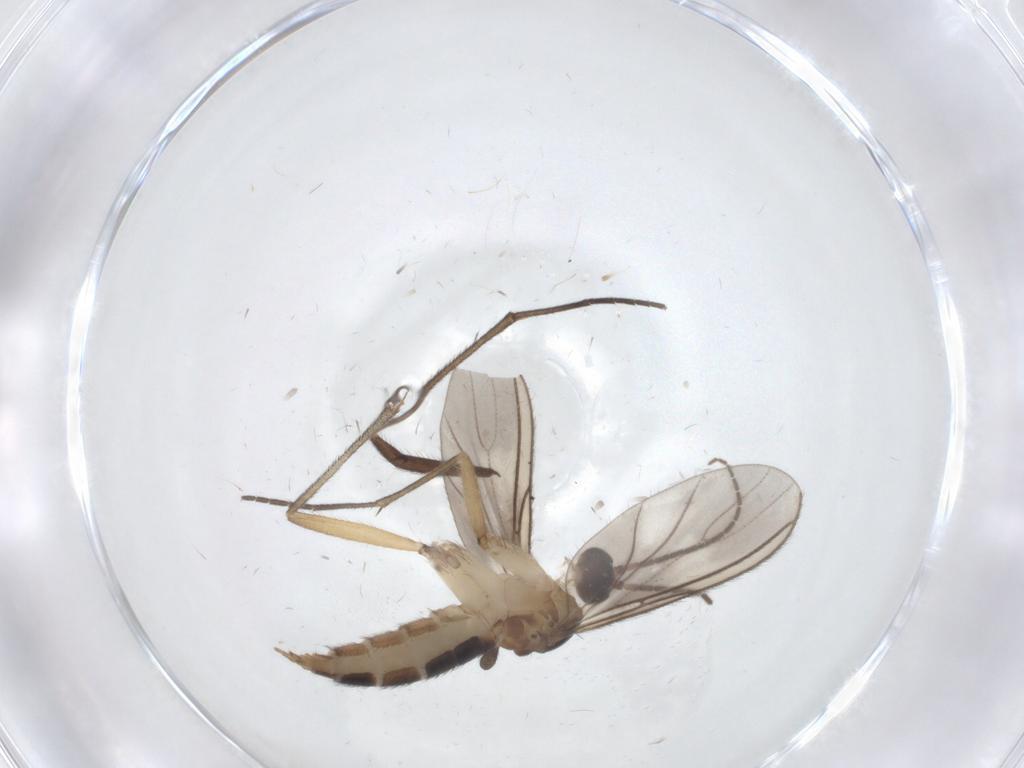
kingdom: Animalia
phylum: Arthropoda
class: Insecta
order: Diptera
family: Sciaridae
